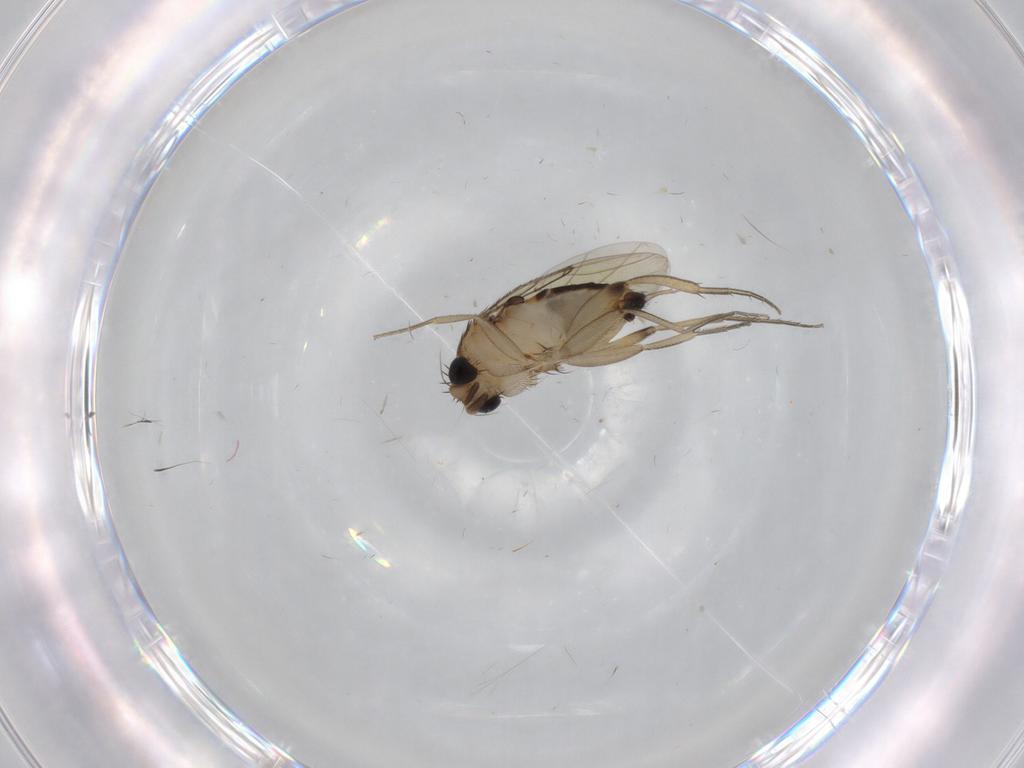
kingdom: Animalia
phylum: Arthropoda
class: Insecta
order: Diptera
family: Phoridae
